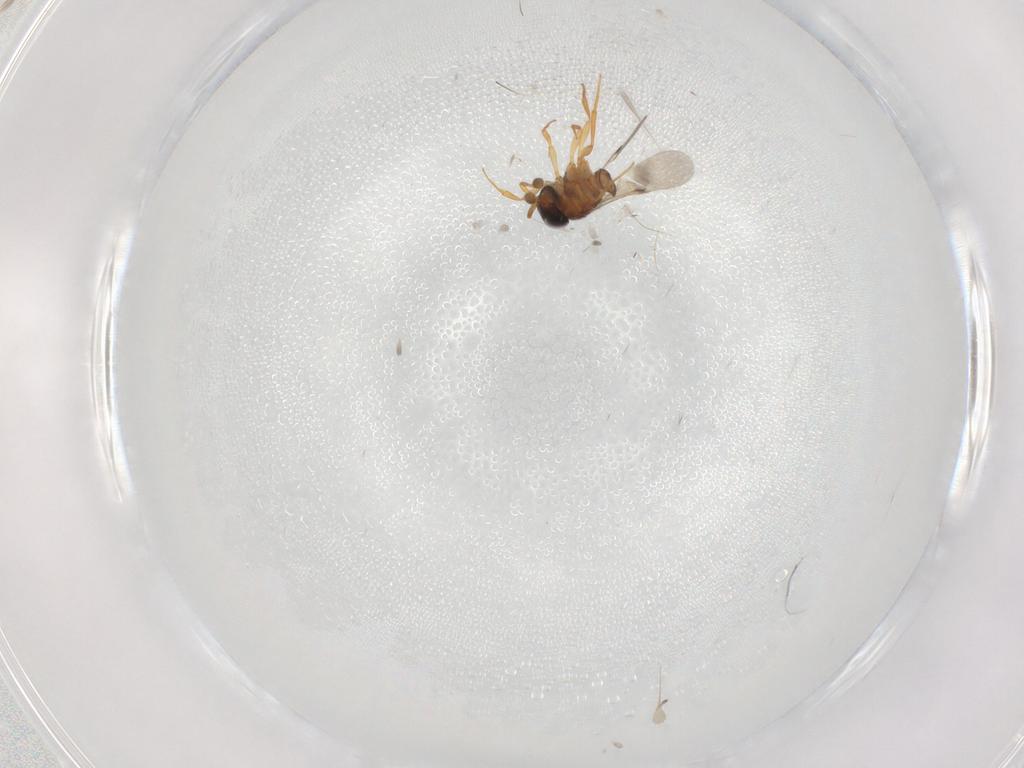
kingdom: Animalia
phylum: Arthropoda
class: Insecta
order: Hymenoptera
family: Scelionidae
